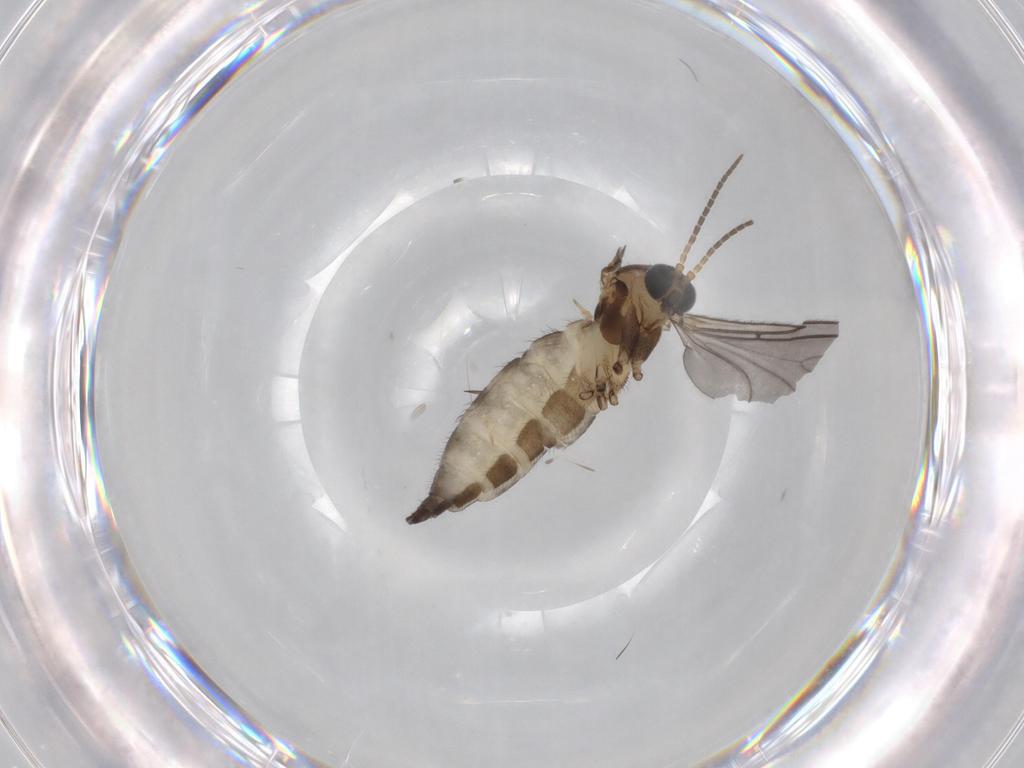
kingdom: Animalia
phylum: Arthropoda
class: Insecta
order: Diptera
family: Sciaridae
